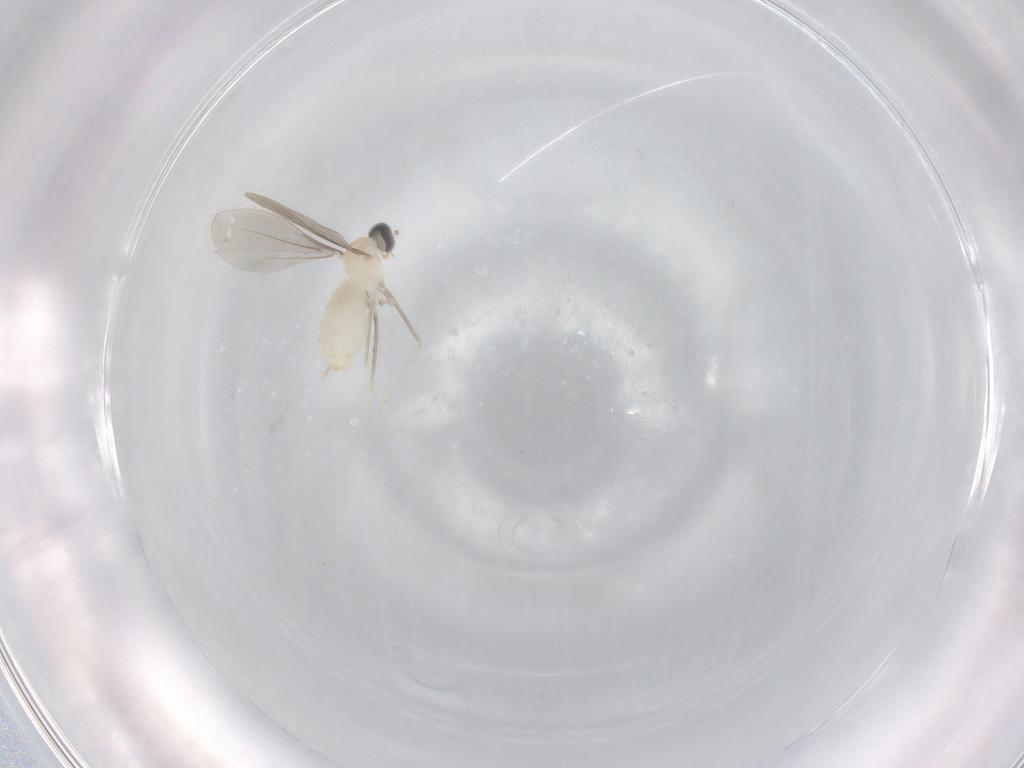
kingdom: Animalia
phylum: Arthropoda
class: Insecta
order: Diptera
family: Cecidomyiidae
